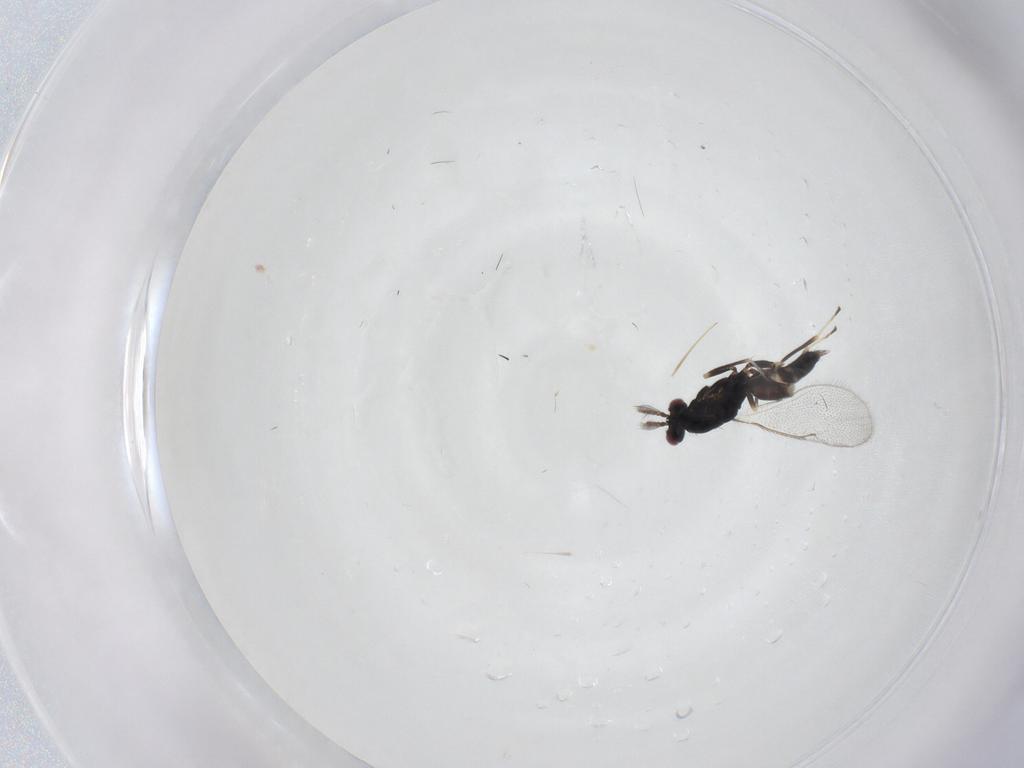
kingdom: Animalia
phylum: Arthropoda
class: Insecta
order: Hymenoptera
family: Eulophidae
